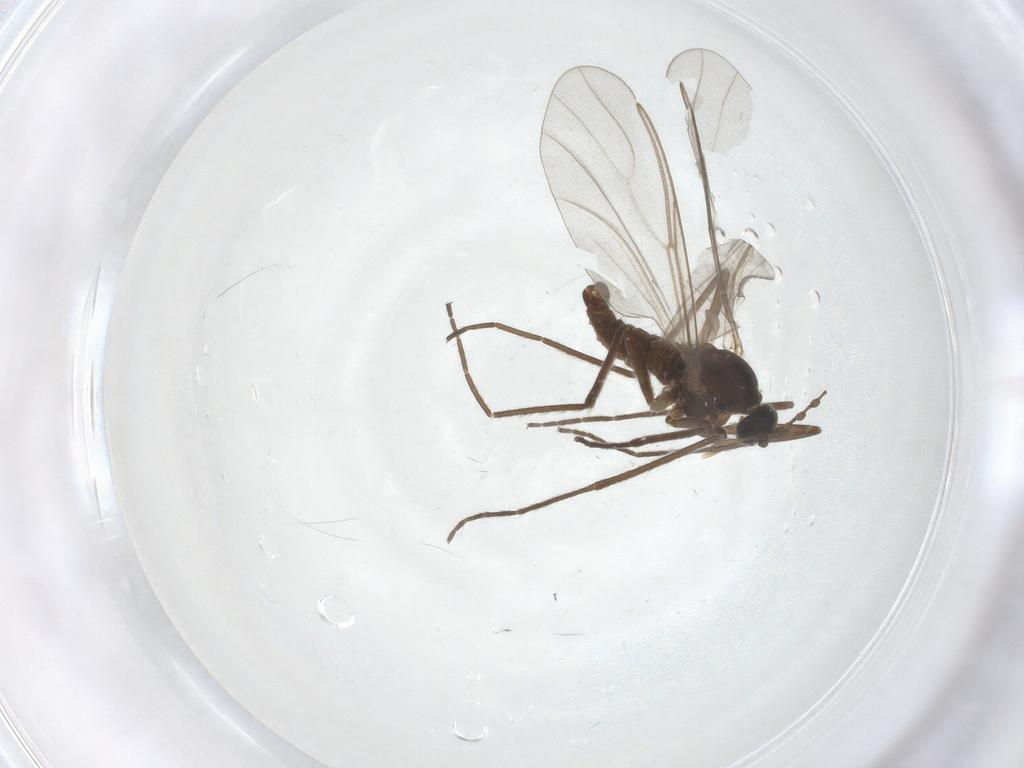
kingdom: Animalia
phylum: Arthropoda
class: Insecta
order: Diptera
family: Cecidomyiidae
